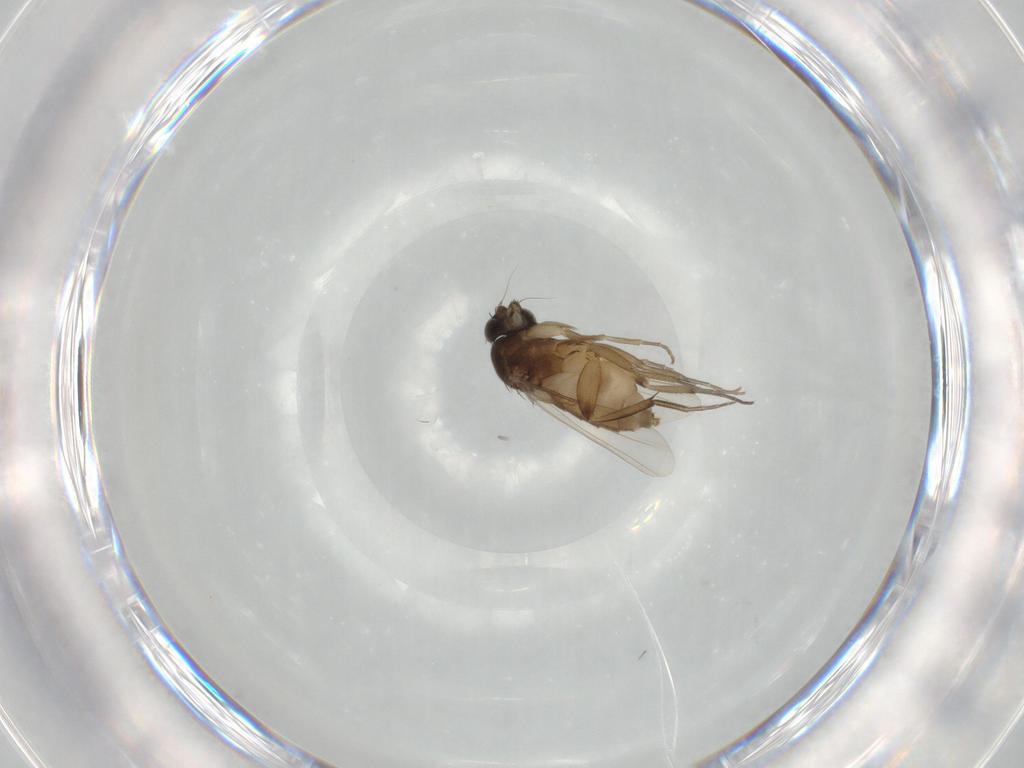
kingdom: Animalia
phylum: Arthropoda
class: Insecta
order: Diptera
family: Phoridae
